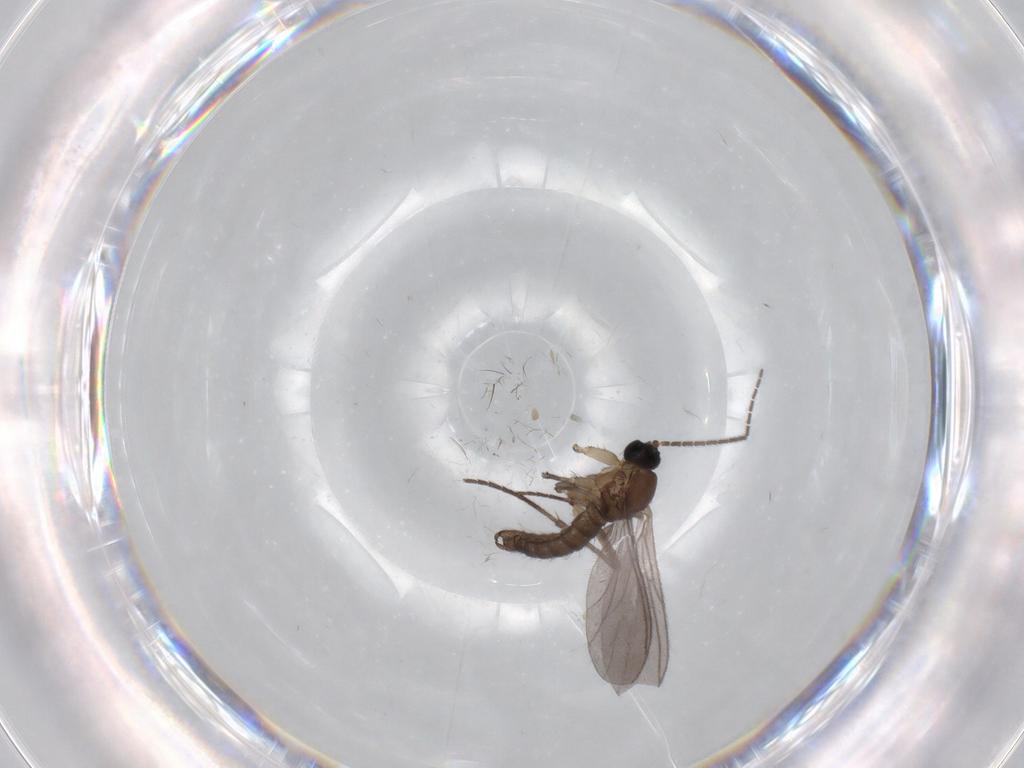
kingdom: Animalia
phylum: Arthropoda
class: Insecta
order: Diptera
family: Sciaridae
